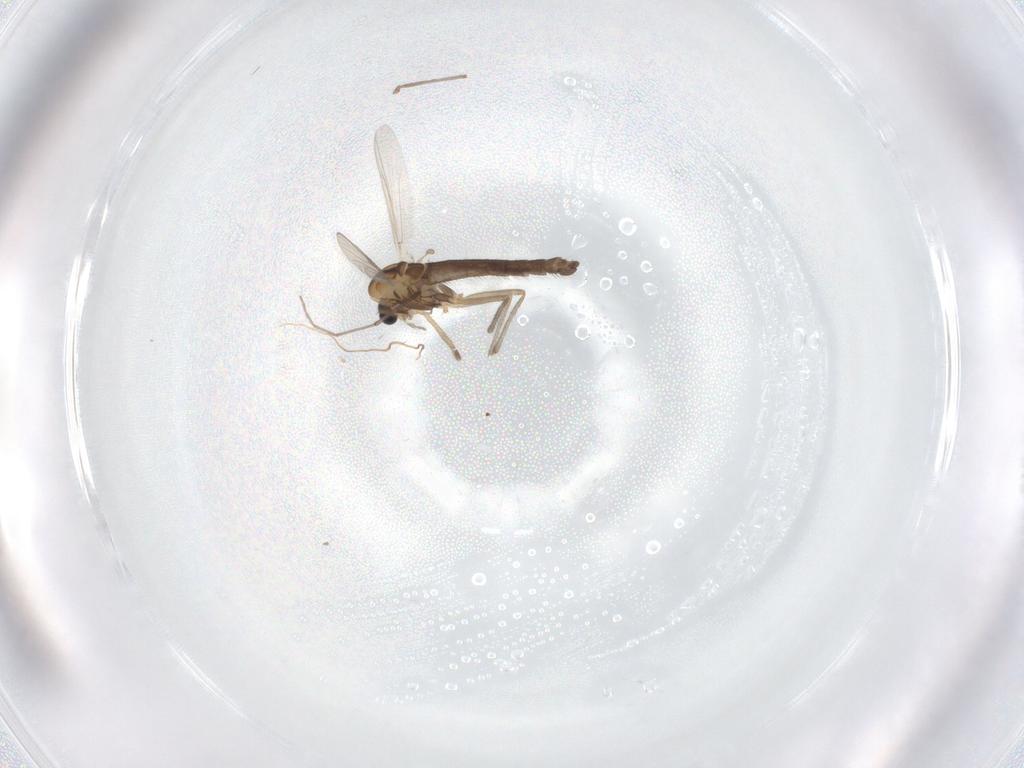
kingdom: Animalia
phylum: Arthropoda
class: Insecta
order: Diptera
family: Chironomidae
